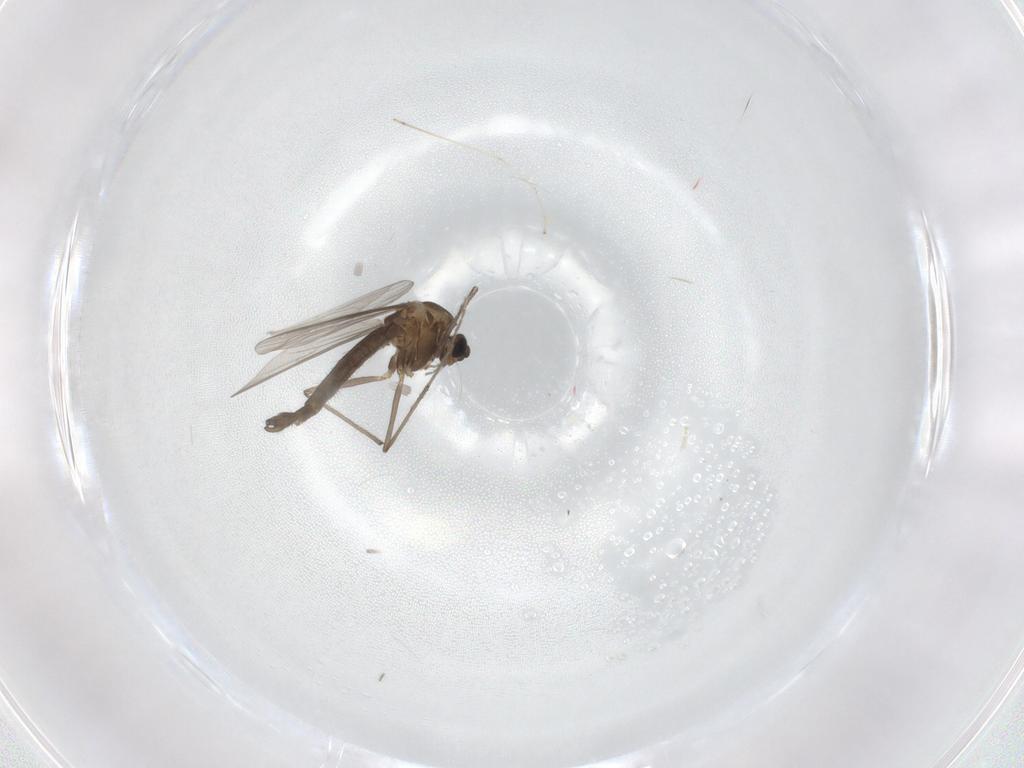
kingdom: Animalia
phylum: Arthropoda
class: Insecta
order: Diptera
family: Chironomidae
